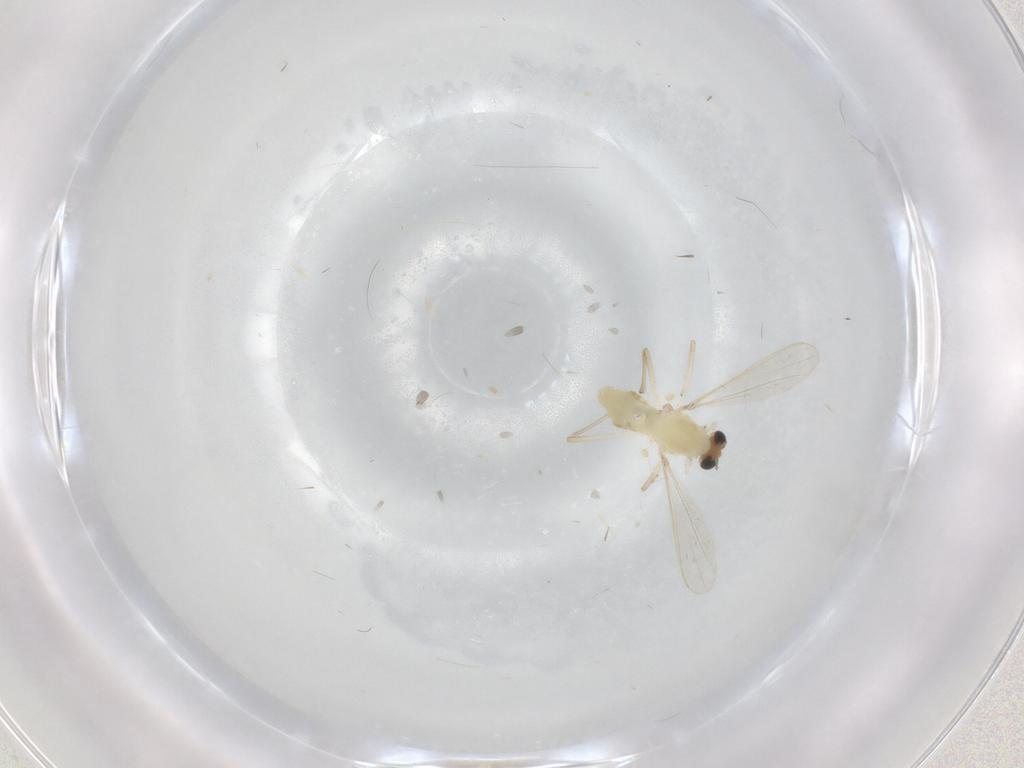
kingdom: Animalia
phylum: Arthropoda
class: Insecta
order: Diptera
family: Chironomidae
